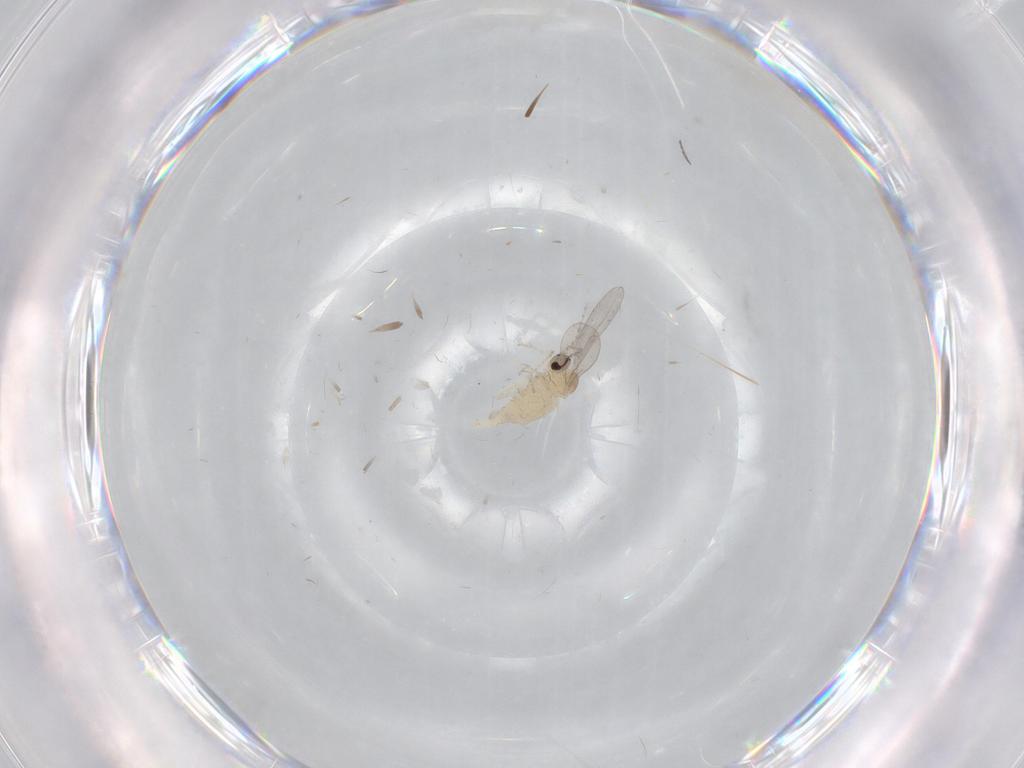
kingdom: Animalia
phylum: Arthropoda
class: Insecta
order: Diptera
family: Cecidomyiidae
